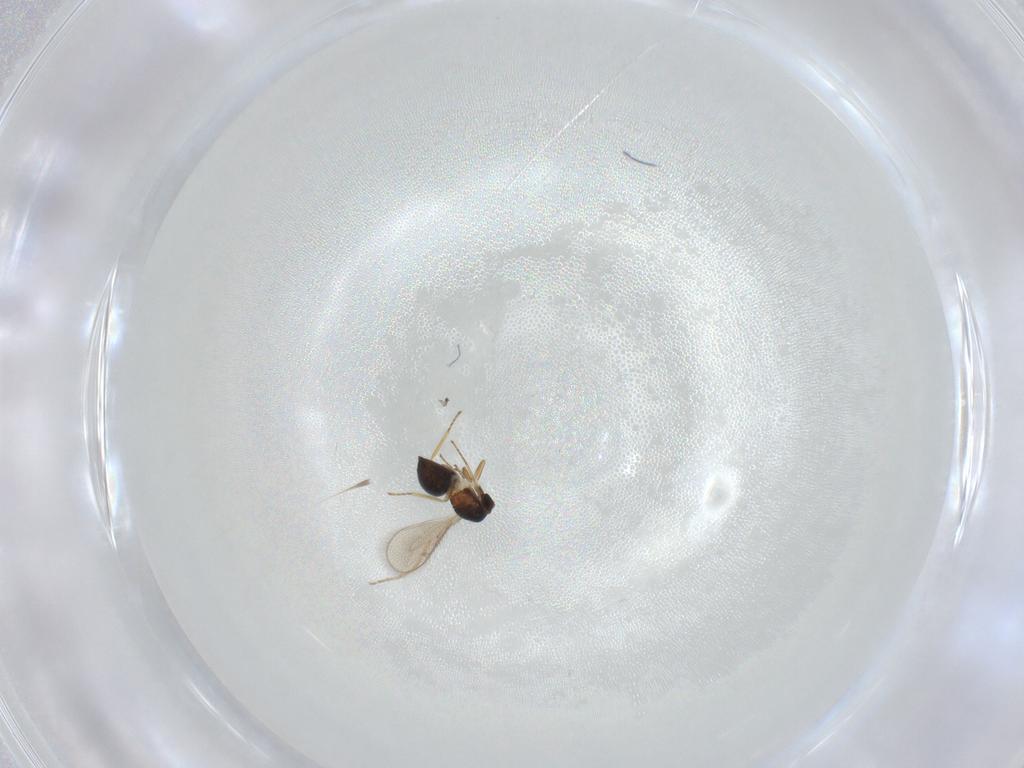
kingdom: Animalia
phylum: Arthropoda
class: Insecta
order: Hymenoptera
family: Eulophidae
